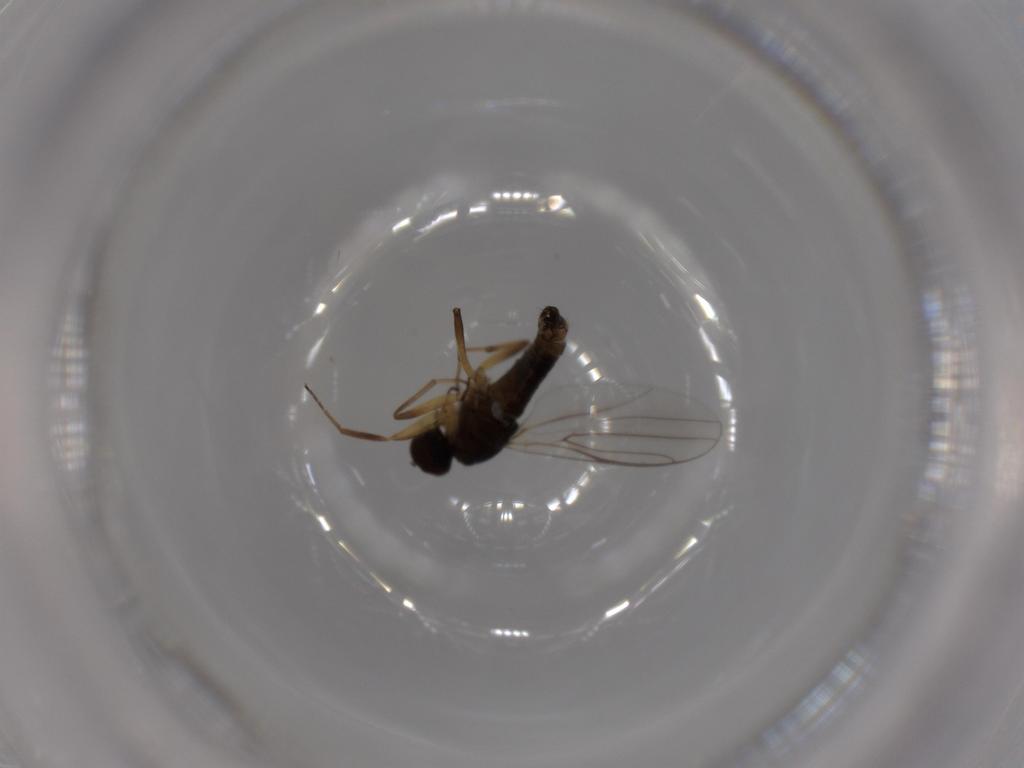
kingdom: Animalia
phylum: Arthropoda
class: Insecta
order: Diptera
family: Hybotidae
